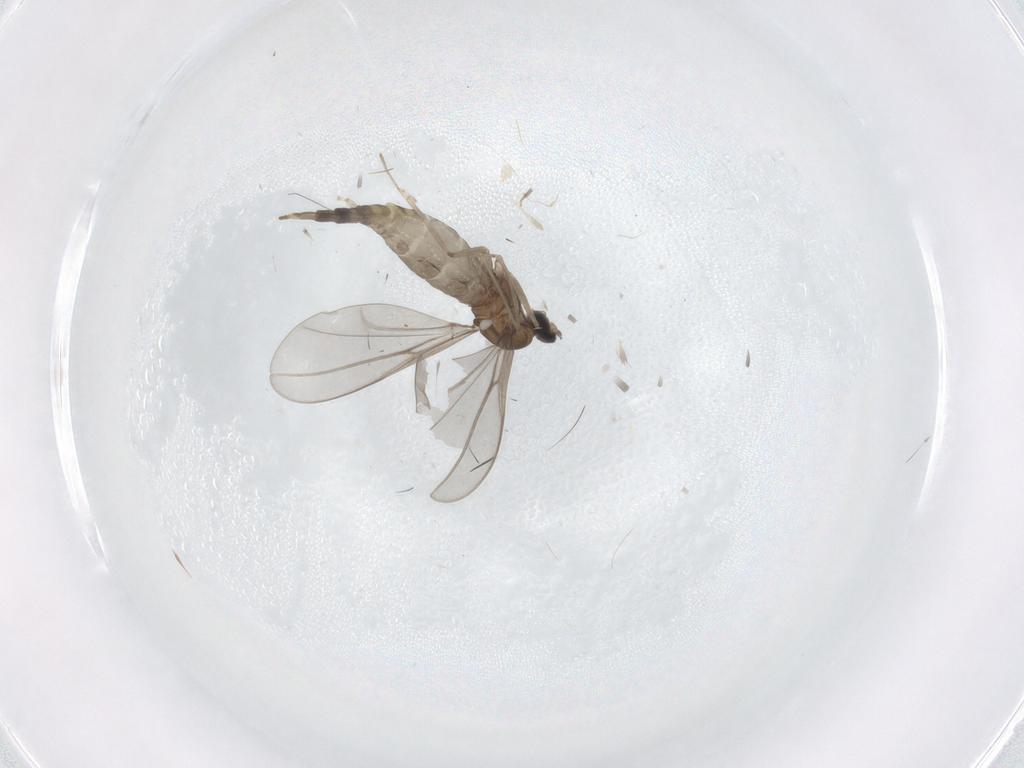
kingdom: Animalia
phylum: Arthropoda
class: Insecta
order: Diptera
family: Cecidomyiidae
